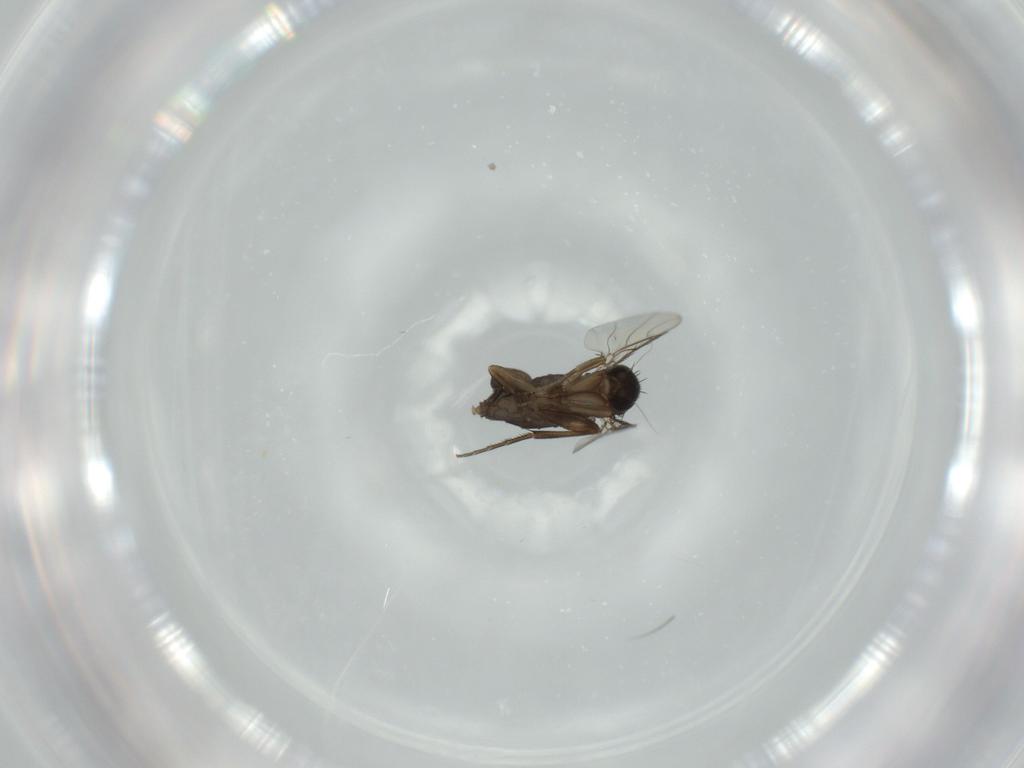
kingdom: Animalia
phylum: Arthropoda
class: Insecta
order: Diptera
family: Phoridae
